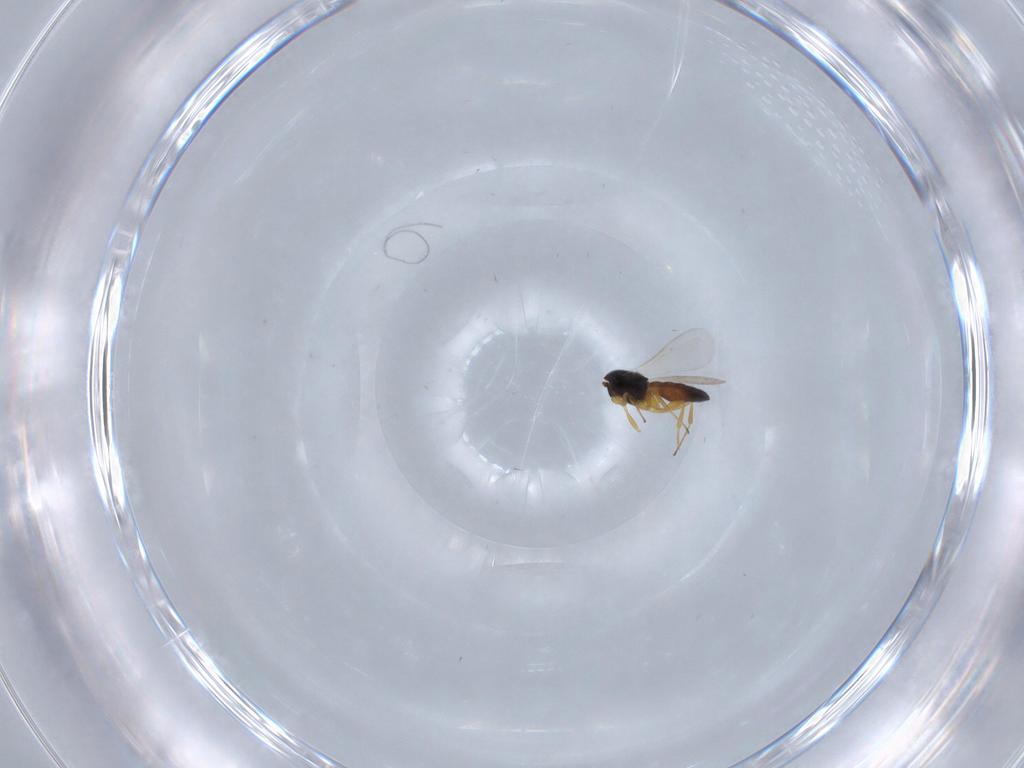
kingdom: Animalia
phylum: Arthropoda
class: Insecta
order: Hymenoptera
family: Scelionidae
